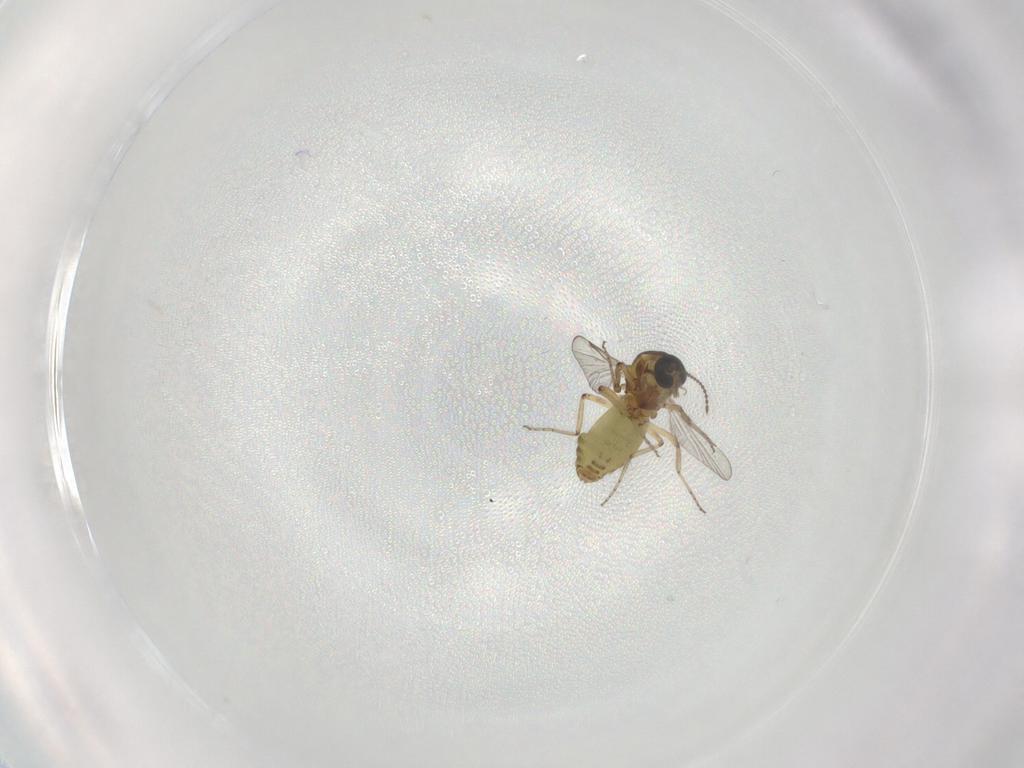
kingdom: Animalia
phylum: Arthropoda
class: Insecta
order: Diptera
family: Ceratopogonidae
